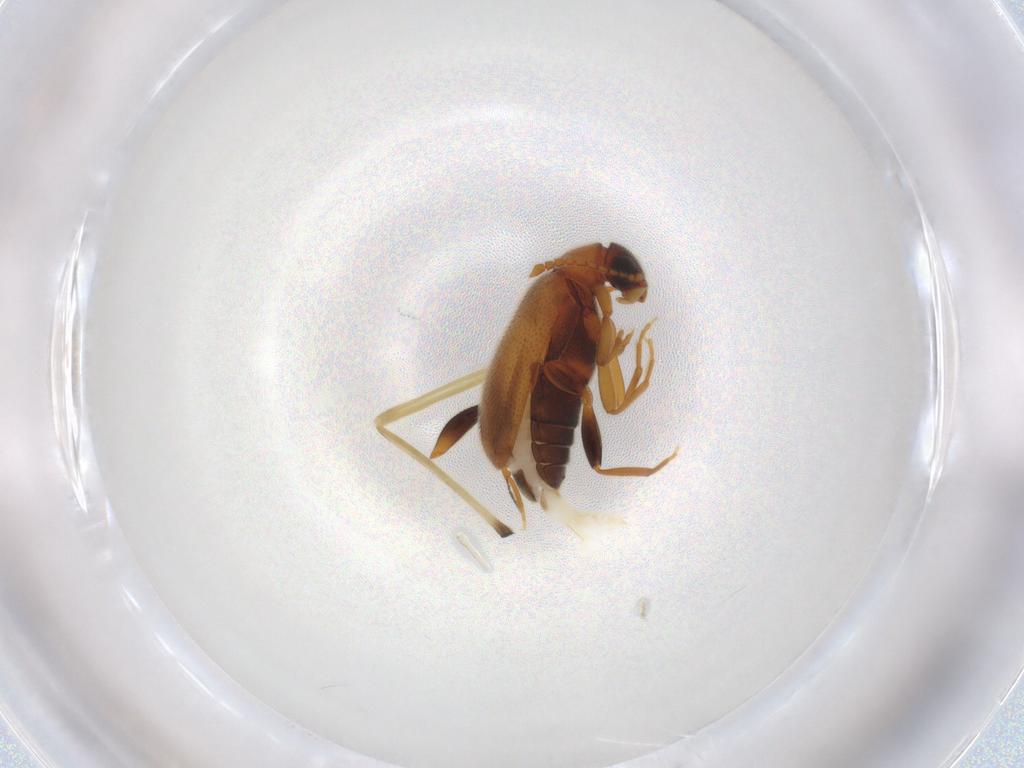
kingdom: Animalia
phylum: Arthropoda
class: Insecta
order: Coleoptera
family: Aderidae
